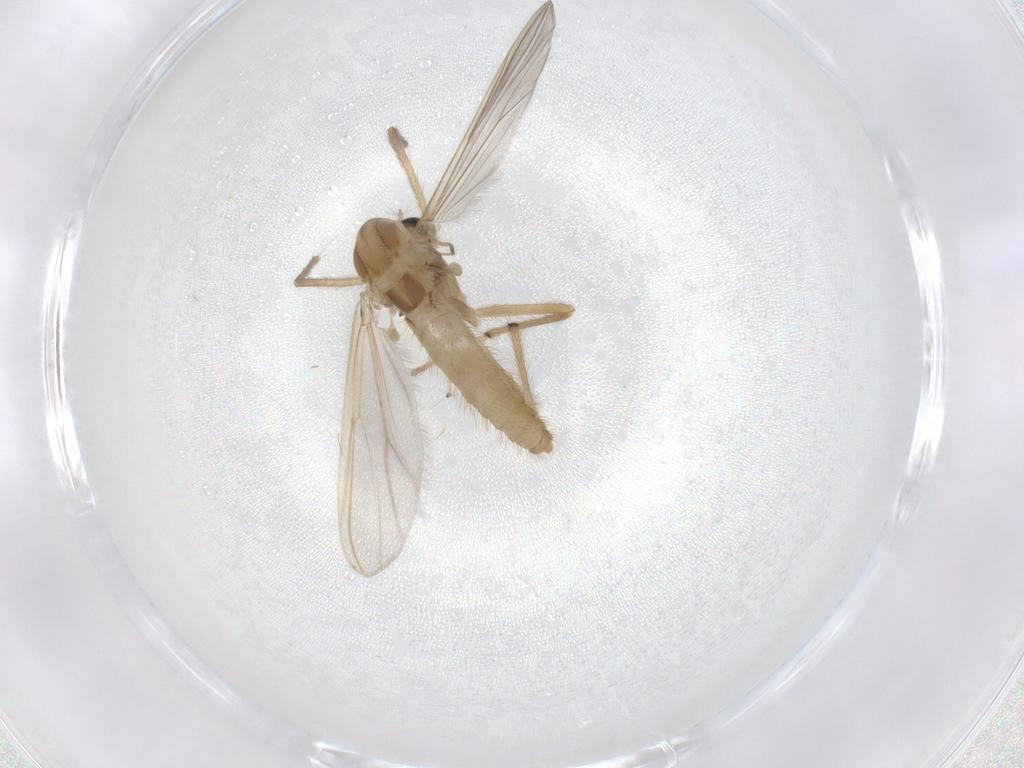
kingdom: Animalia
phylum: Arthropoda
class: Insecta
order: Diptera
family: Chironomidae
